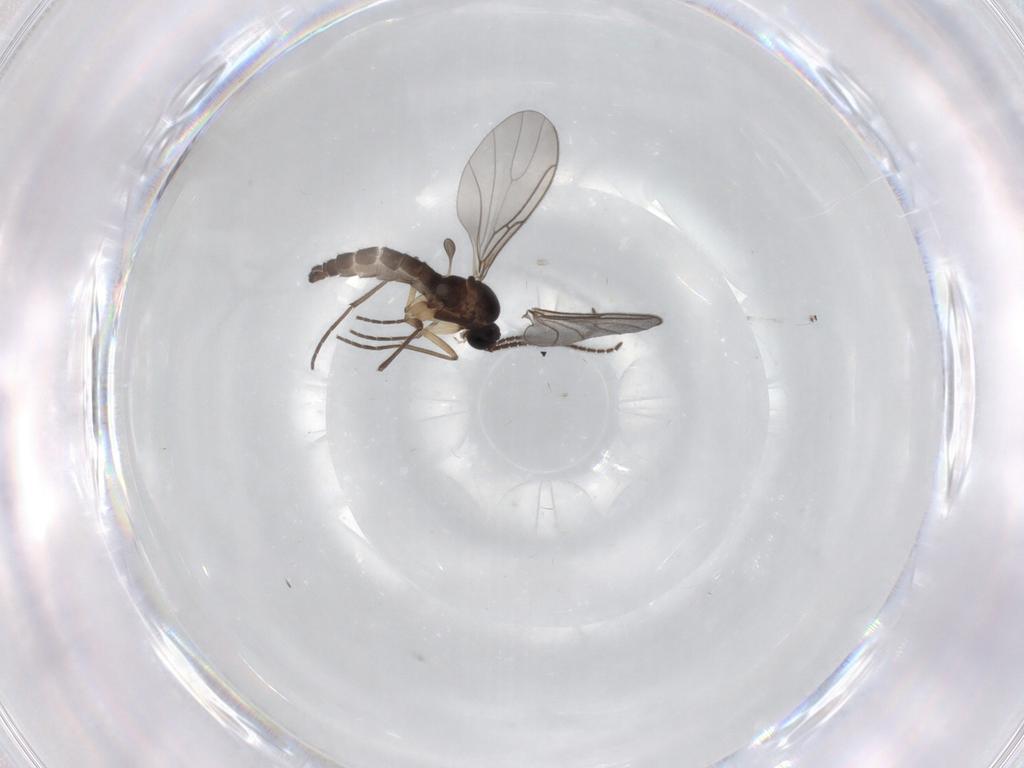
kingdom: Animalia
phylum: Arthropoda
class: Insecta
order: Diptera
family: Sciaridae
